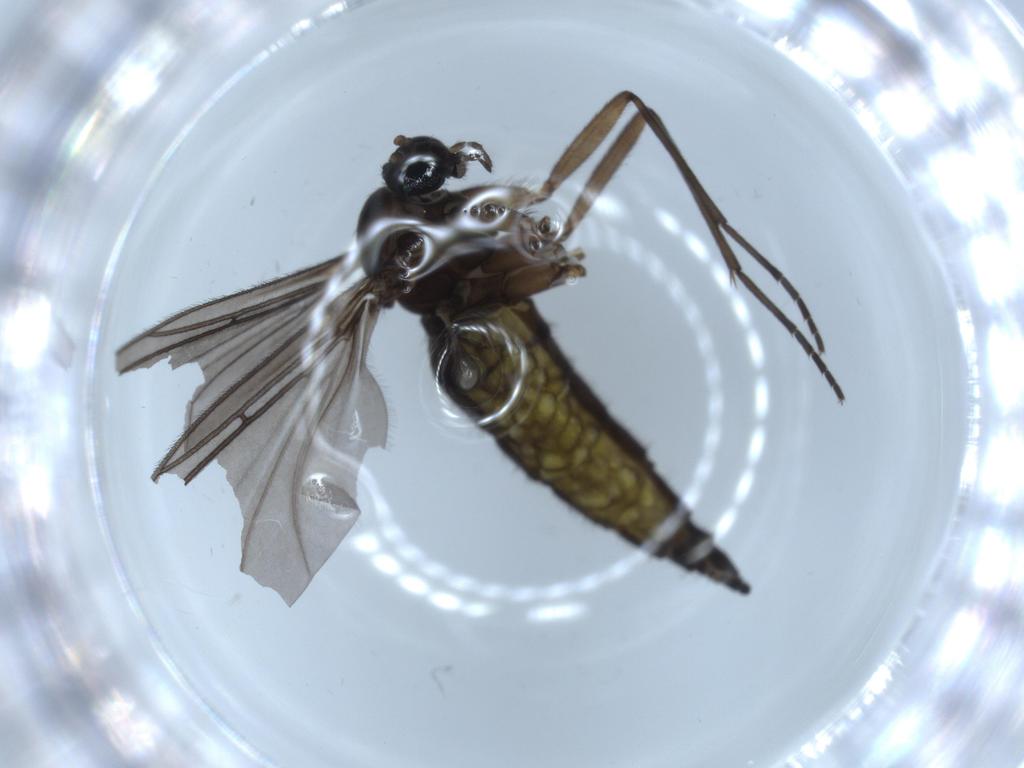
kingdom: Animalia
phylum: Arthropoda
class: Insecta
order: Diptera
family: Sciaridae
